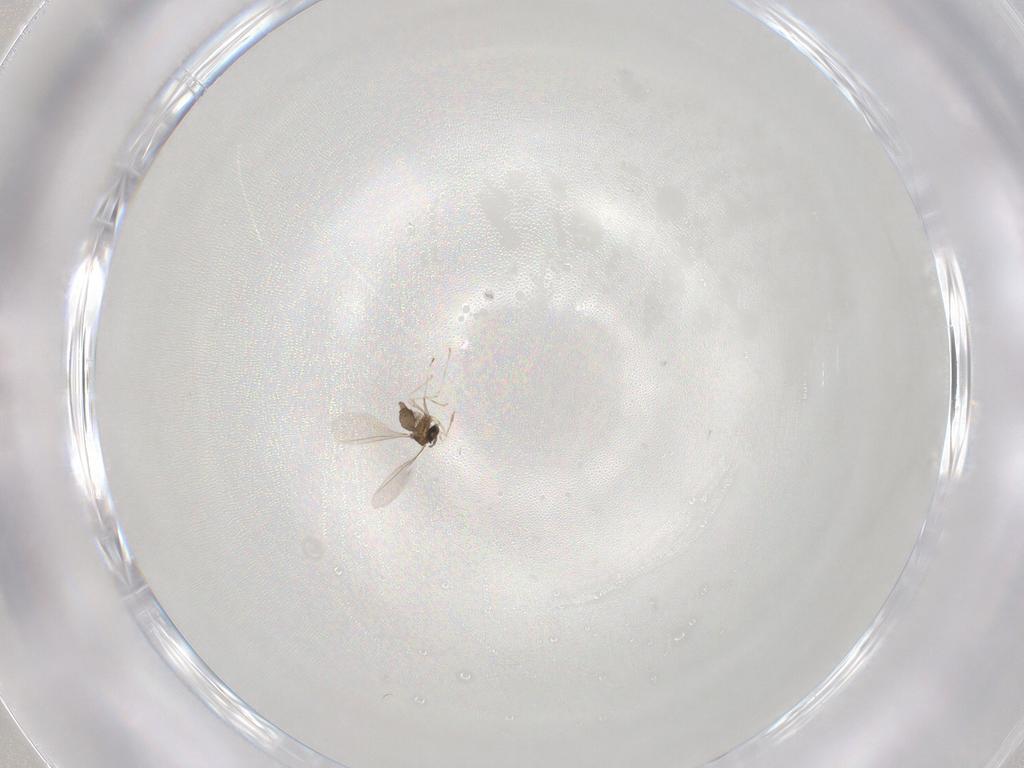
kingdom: Animalia
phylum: Arthropoda
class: Insecta
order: Diptera
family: Cecidomyiidae
